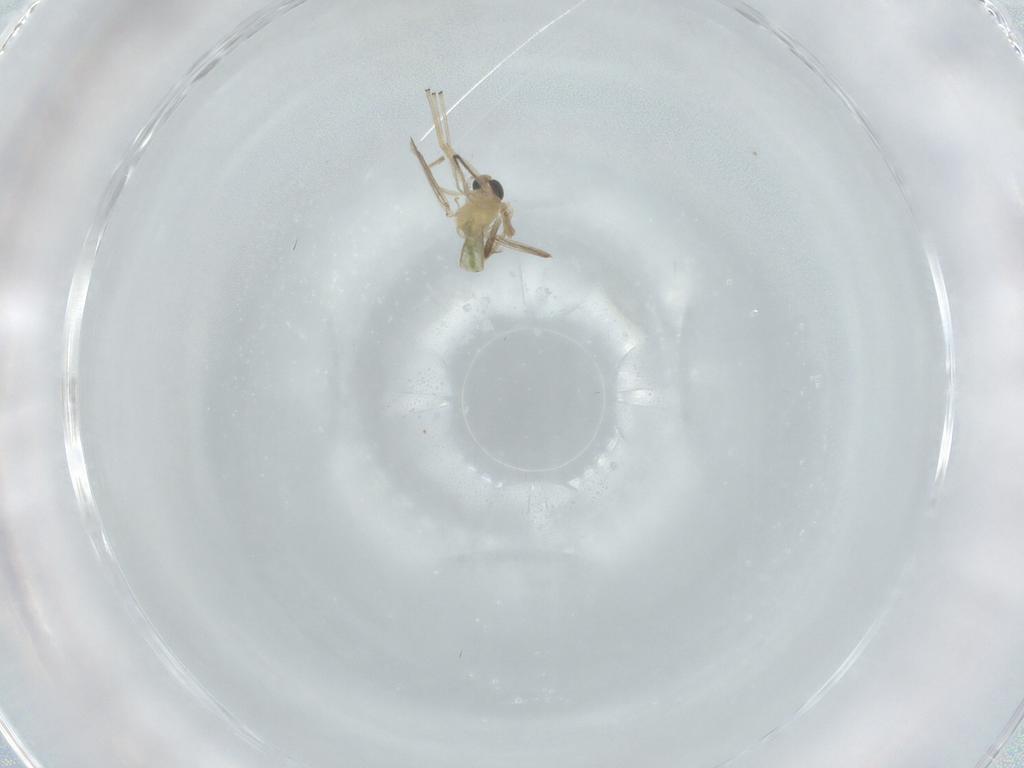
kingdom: Animalia
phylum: Arthropoda
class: Insecta
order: Diptera
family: Chironomidae
